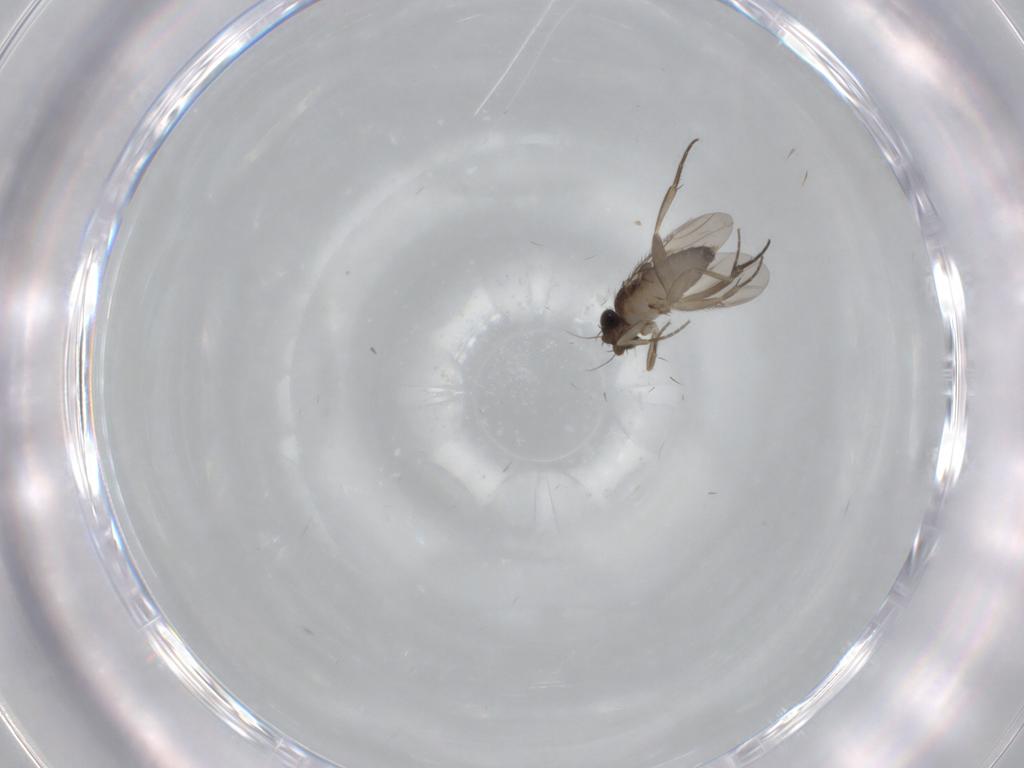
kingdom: Animalia
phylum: Arthropoda
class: Insecta
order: Diptera
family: Phoridae
